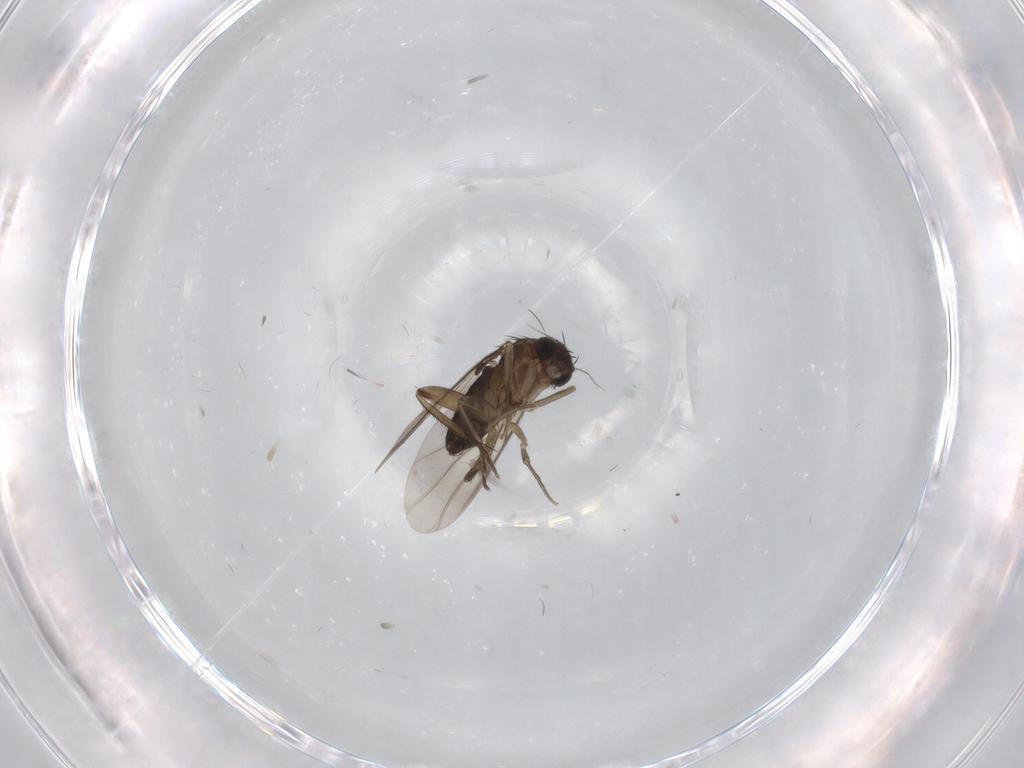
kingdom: Animalia
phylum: Arthropoda
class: Insecta
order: Diptera
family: Phoridae
